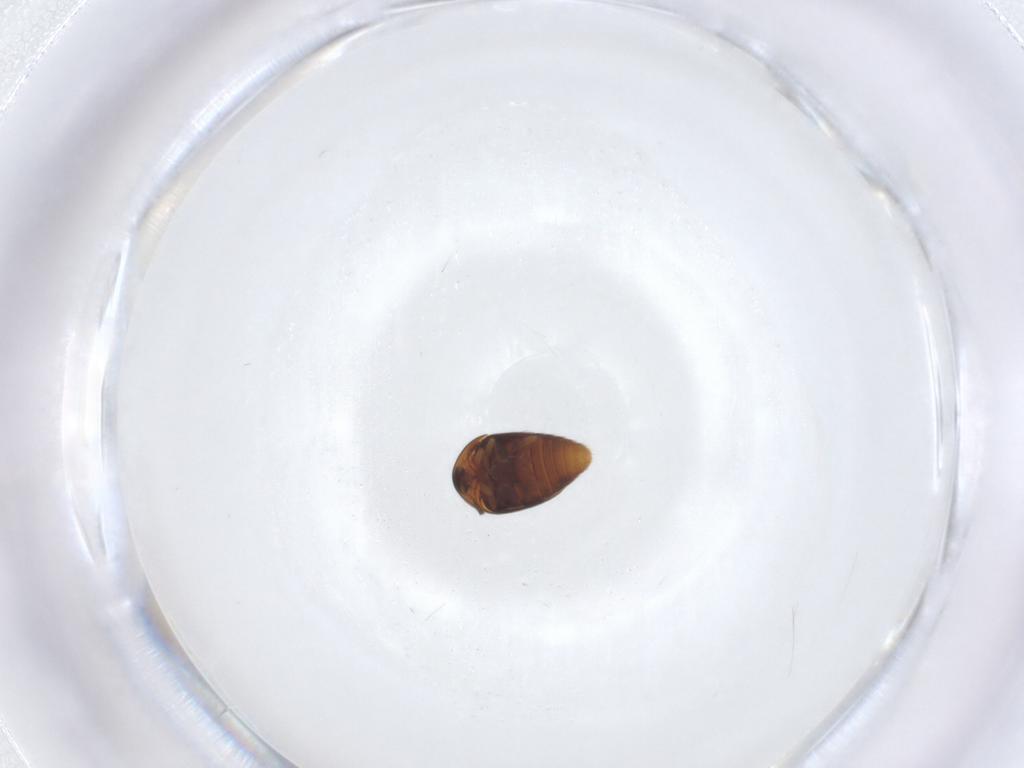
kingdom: Animalia
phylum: Arthropoda
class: Insecta
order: Coleoptera
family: Corylophidae
